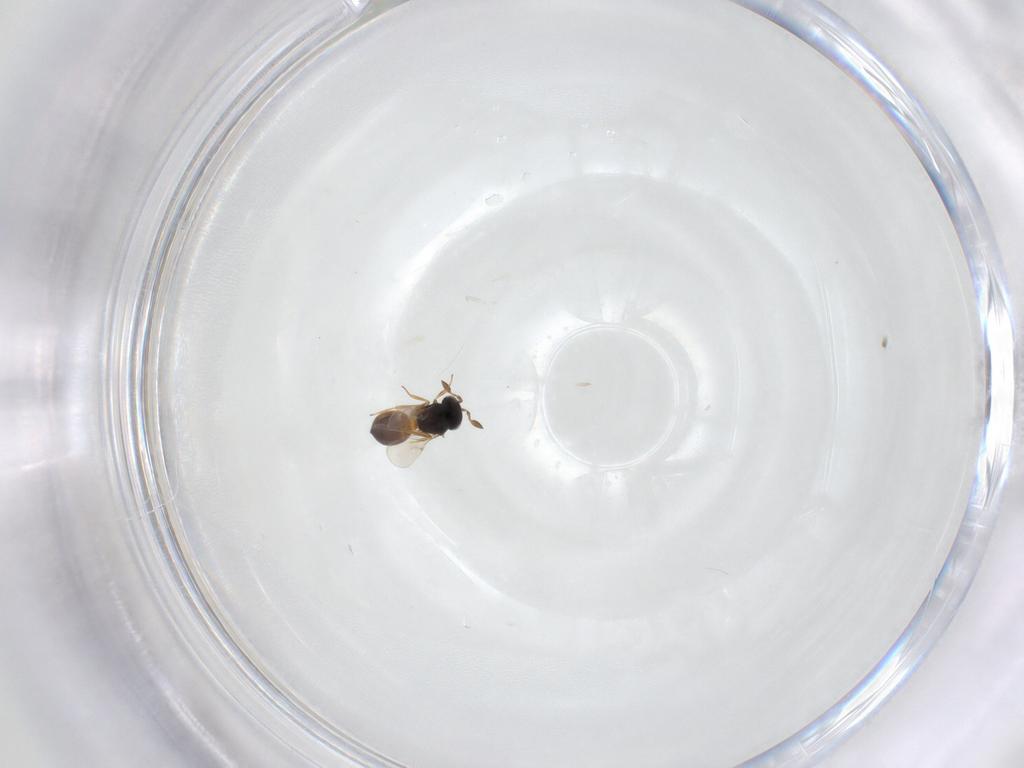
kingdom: Animalia
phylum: Arthropoda
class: Insecta
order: Hymenoptera
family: Scelionidae
